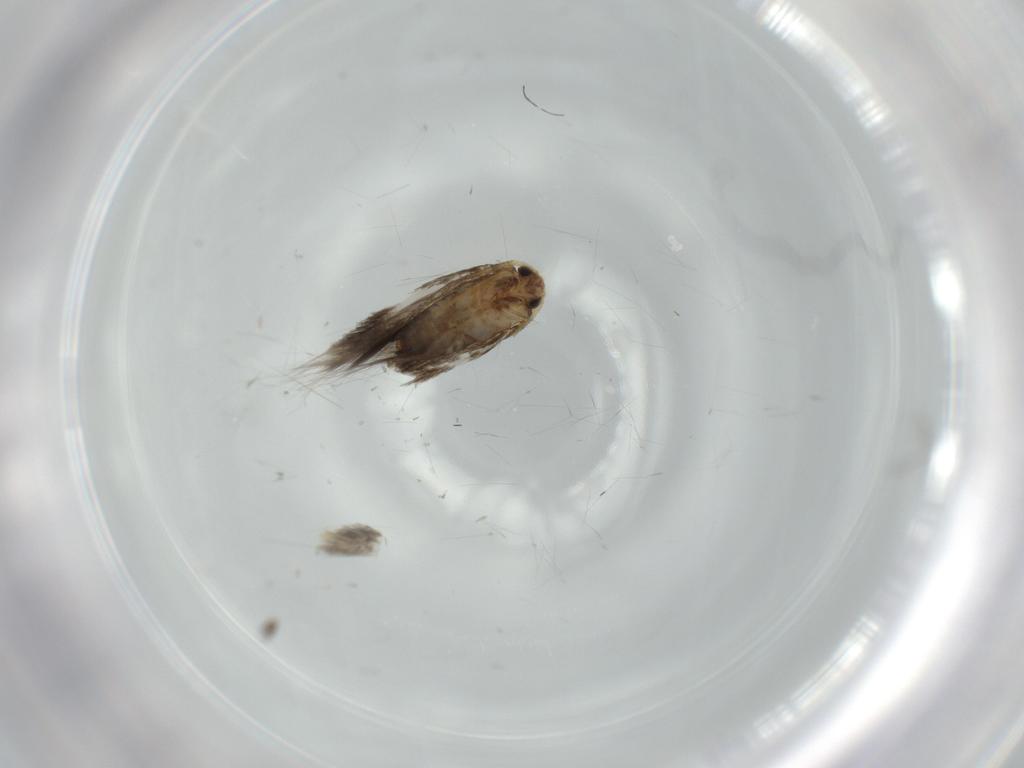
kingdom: Animalia
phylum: Arthropoda
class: Insecta
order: Lepidoptera
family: Tineidae
